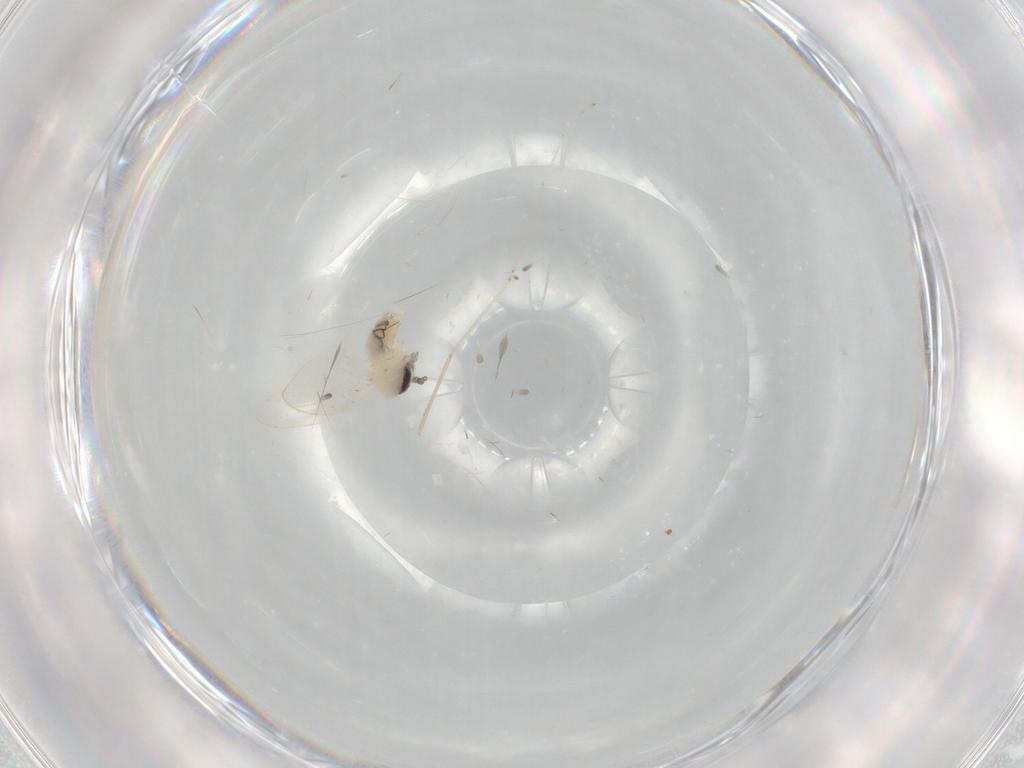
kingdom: Animalia
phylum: Arthropoda
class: Insecta
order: Diptera
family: Psychodidae
